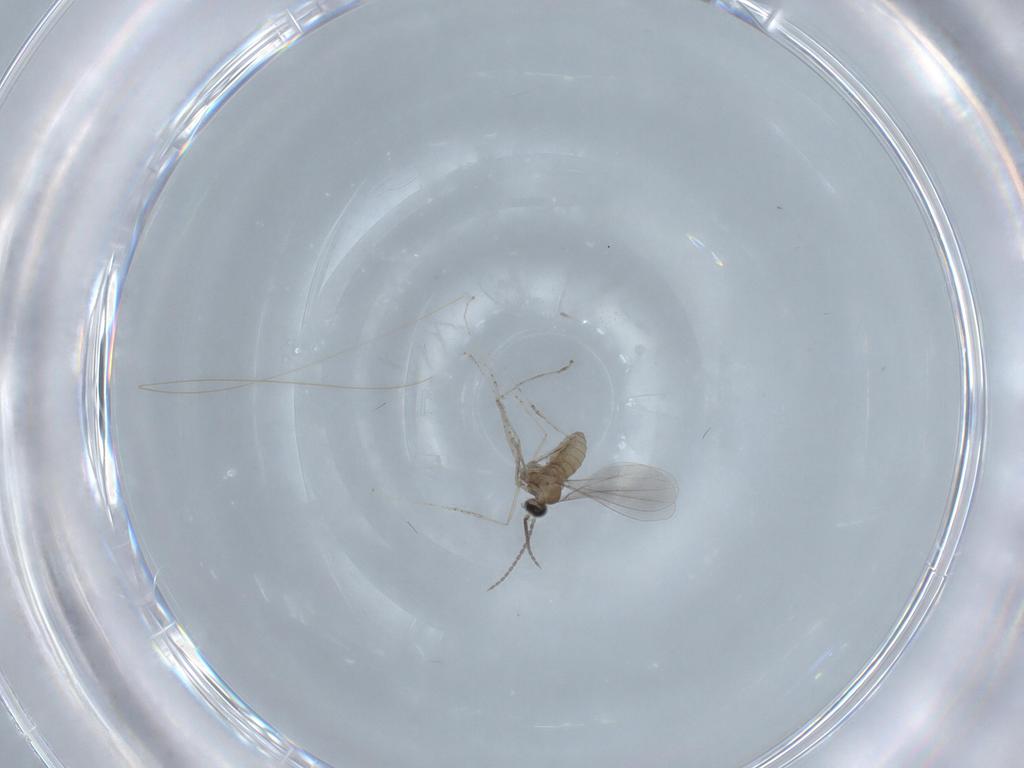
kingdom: Animalia
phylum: Arthropoda
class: Insecta
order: Diptera
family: Cecidomyiidae
